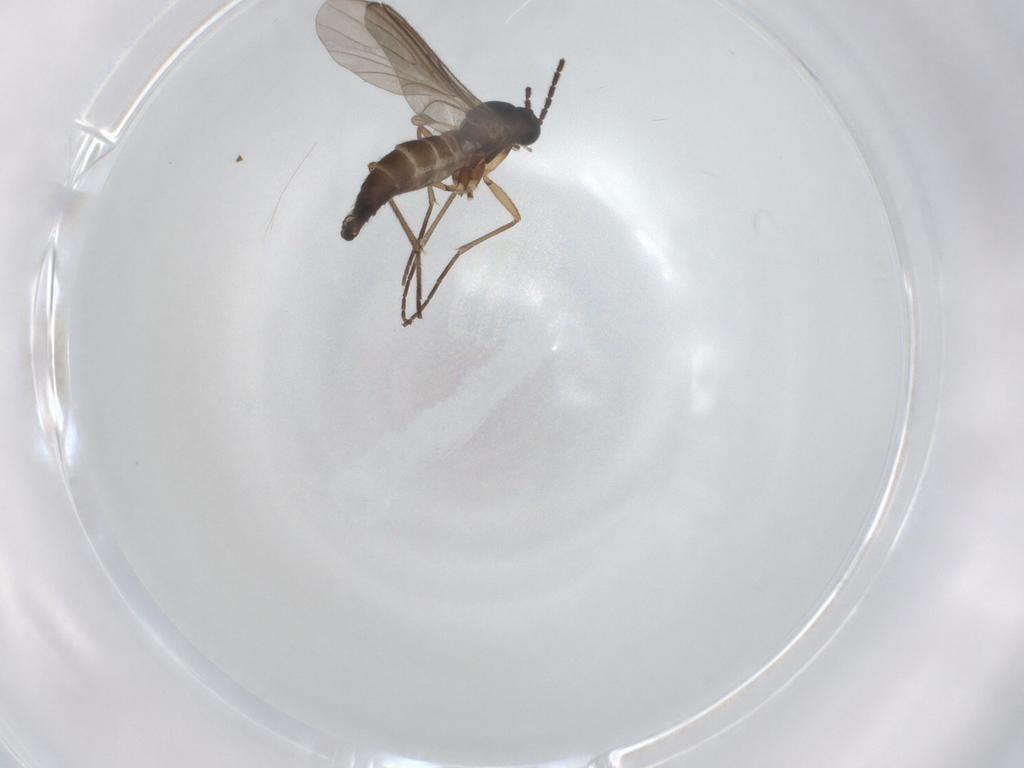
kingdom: Animalia
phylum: Arthropoda
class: Insecta
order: Diptera
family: Sciaridae
